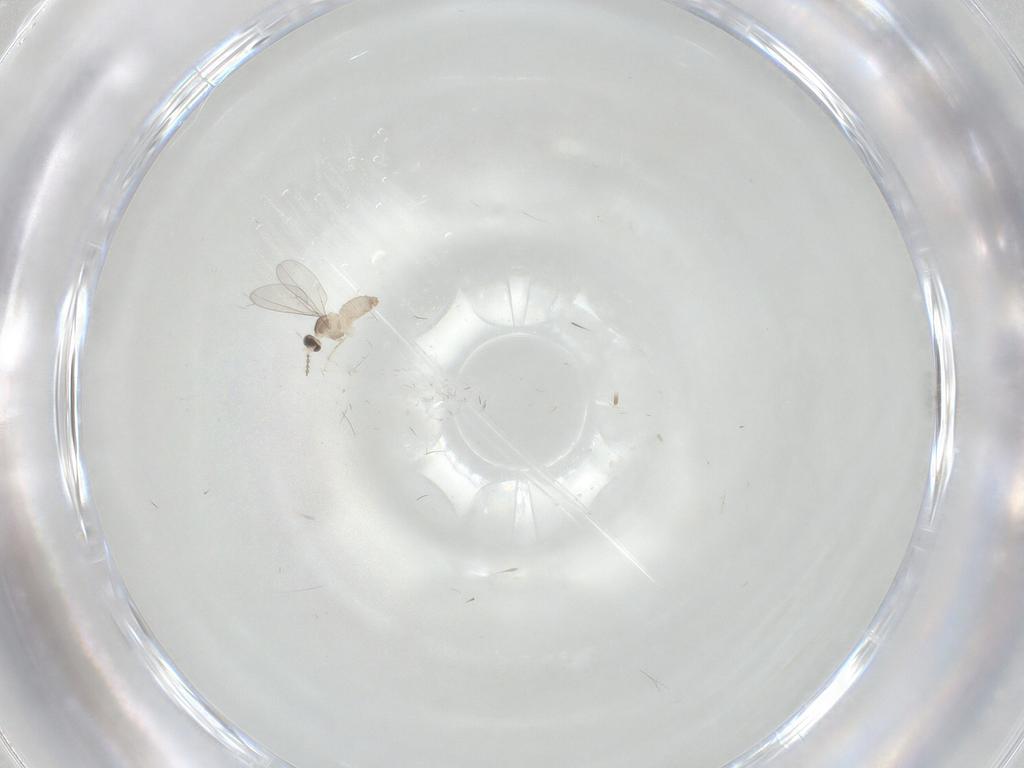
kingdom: Animalia
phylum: Arthropoda
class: Insecta
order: Diptera
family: Cecidomyiidae
